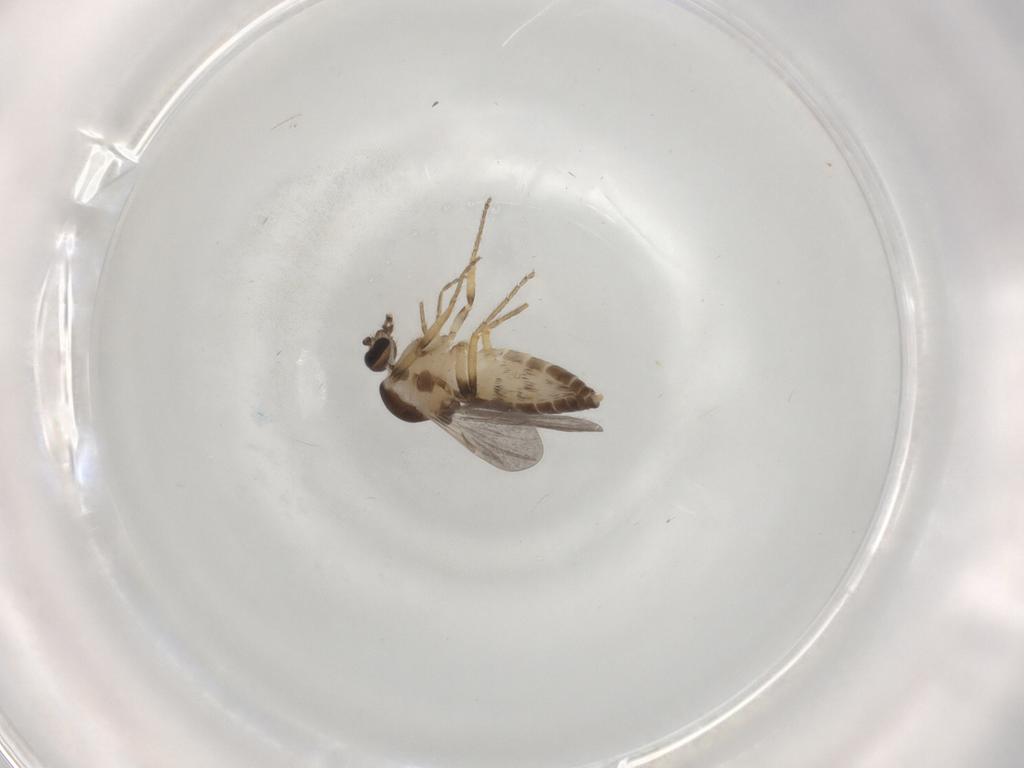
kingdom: Animalia
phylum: Arthropoda
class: Insecta
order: Diptera
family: Ceratopogonidae
